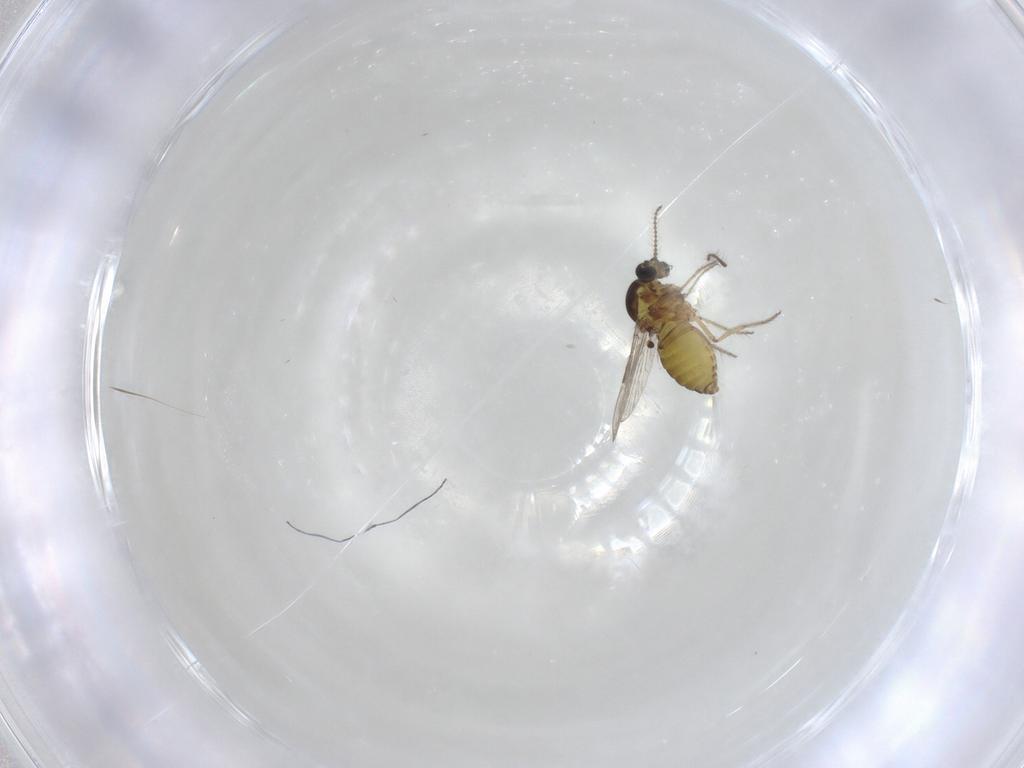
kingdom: Animalia
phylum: Arthropoda
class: Insecta
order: Diptera
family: Ceratopogonidae
